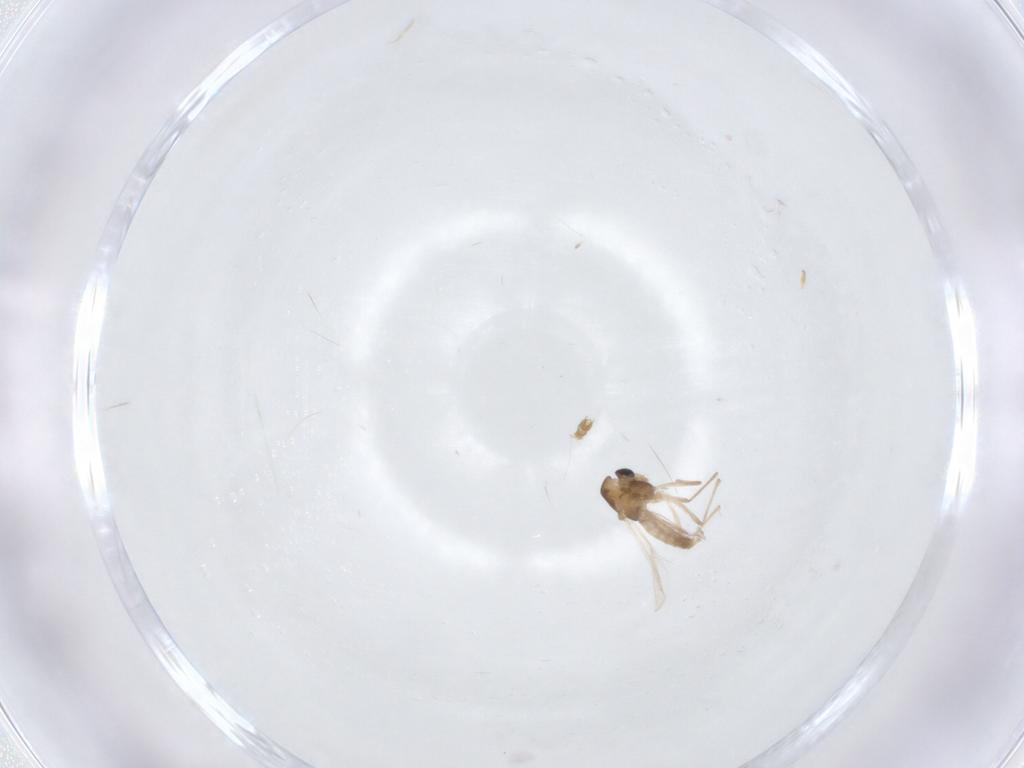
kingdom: Animalia
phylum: Arthropoda
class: Insecta
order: Diptera
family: Chironomidae
